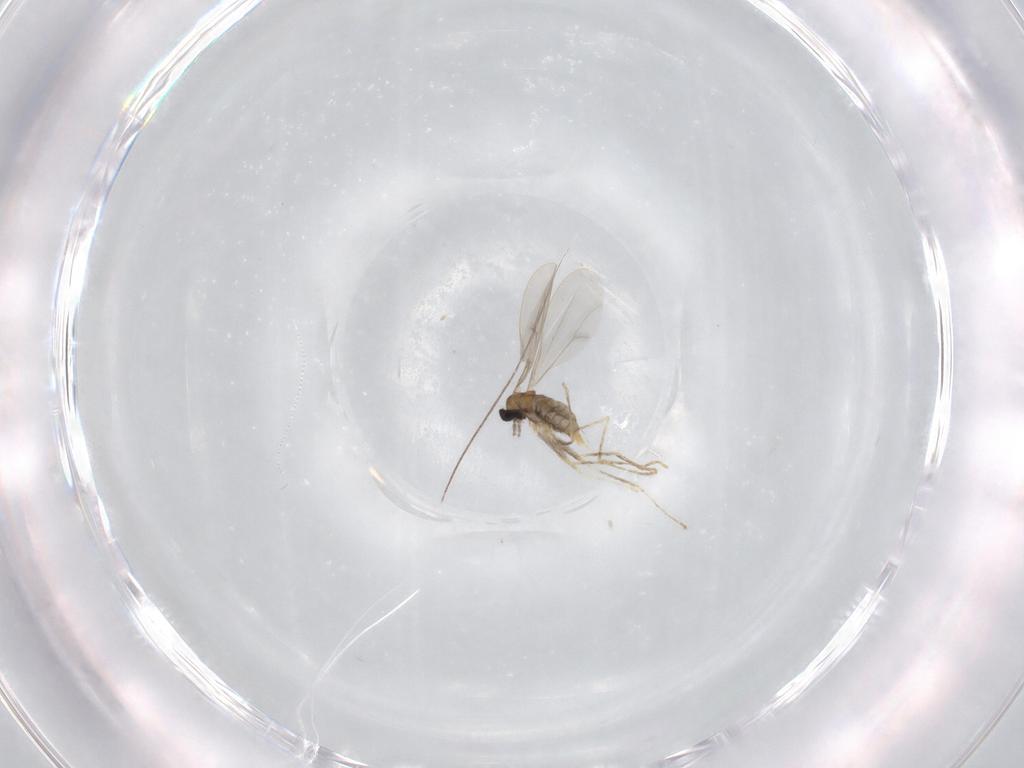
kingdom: Animalia
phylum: Arthropoda
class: Insecta
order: Diptera
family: Cecidomyiidae
